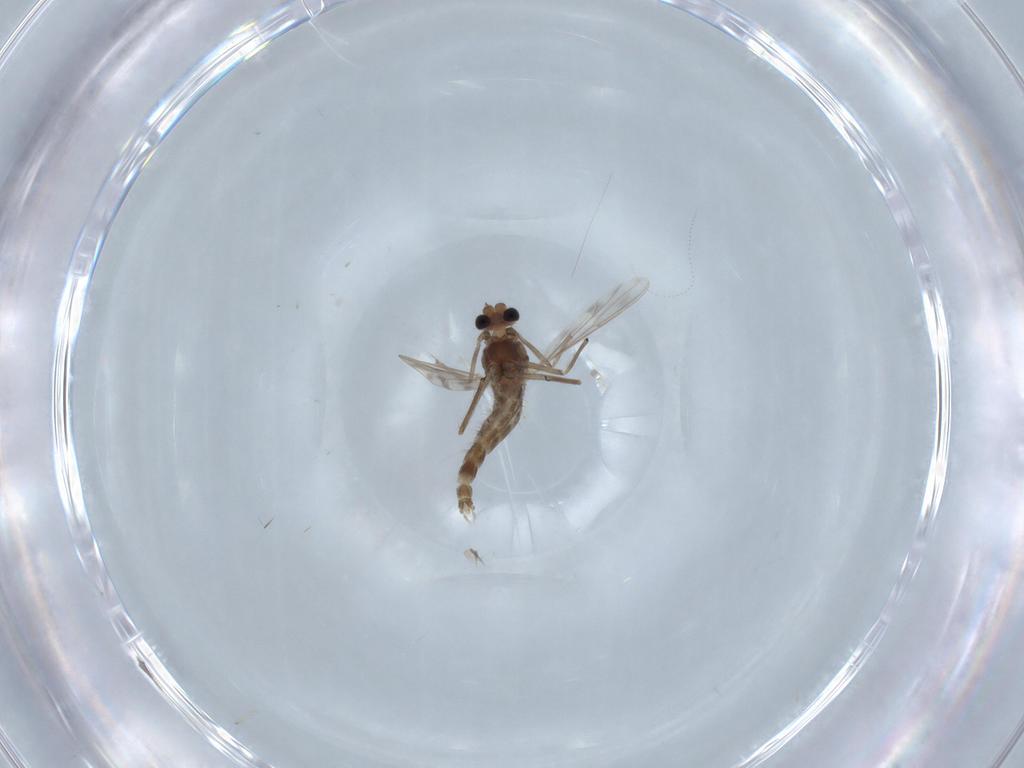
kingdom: Animalia
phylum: Arthropoda
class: Insecta
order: Diptera
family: Chironomidae
